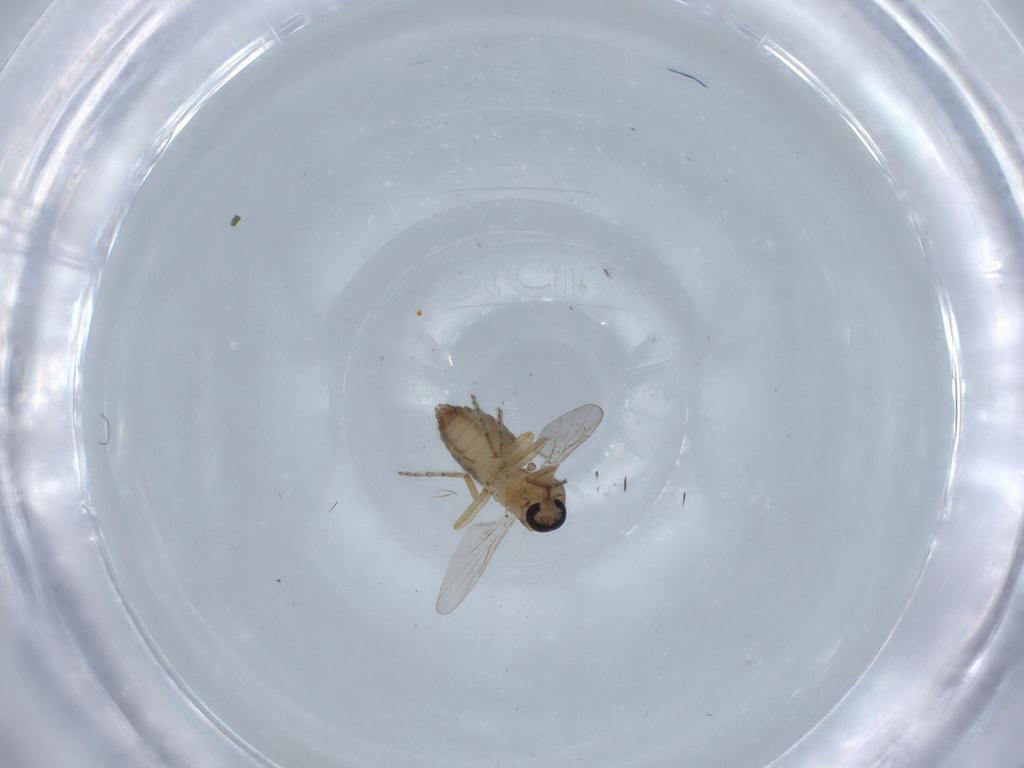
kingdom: Animalia
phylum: Arthropoda
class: Insecta
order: Diptera
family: Ceratopogonidae
